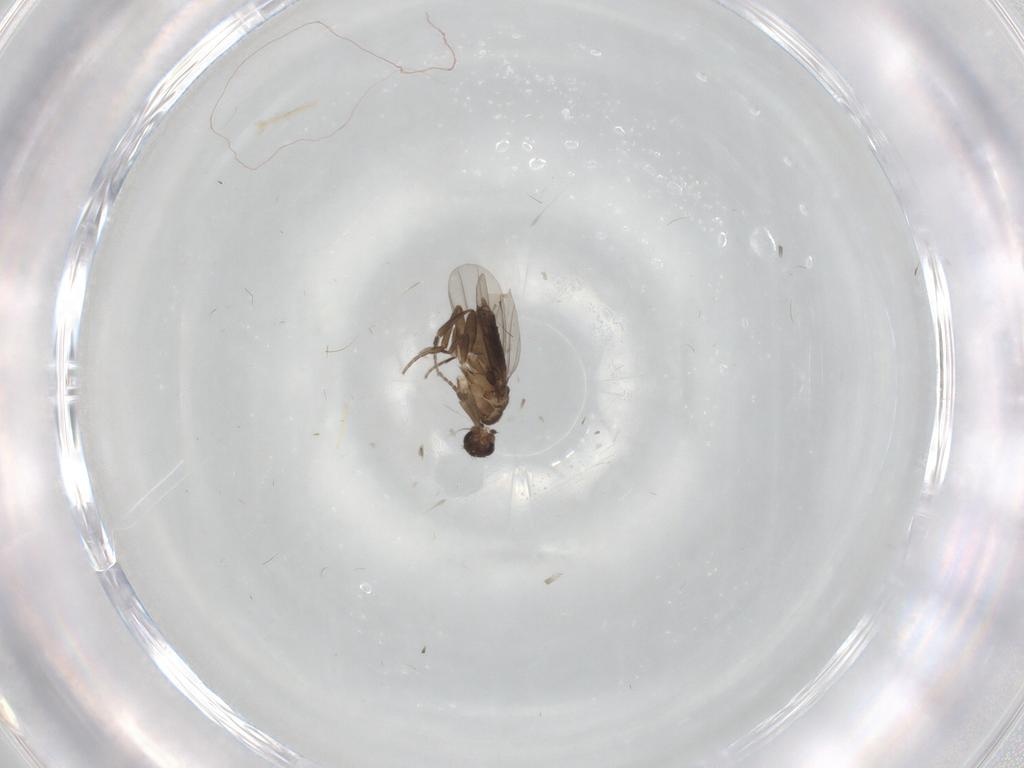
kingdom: Animalia
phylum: Arthropoda
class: Insecta
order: Diptera
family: Phoridae
